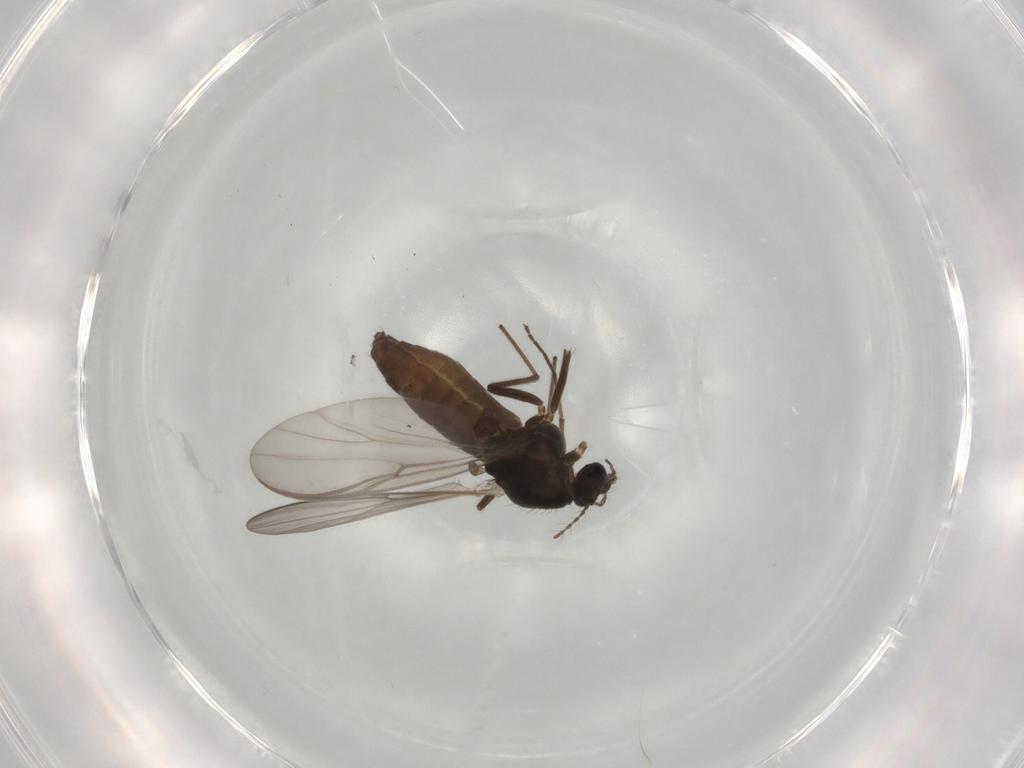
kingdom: Animalia
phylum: Arthropoda
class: Insecta
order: Diptera
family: Chironomidae
